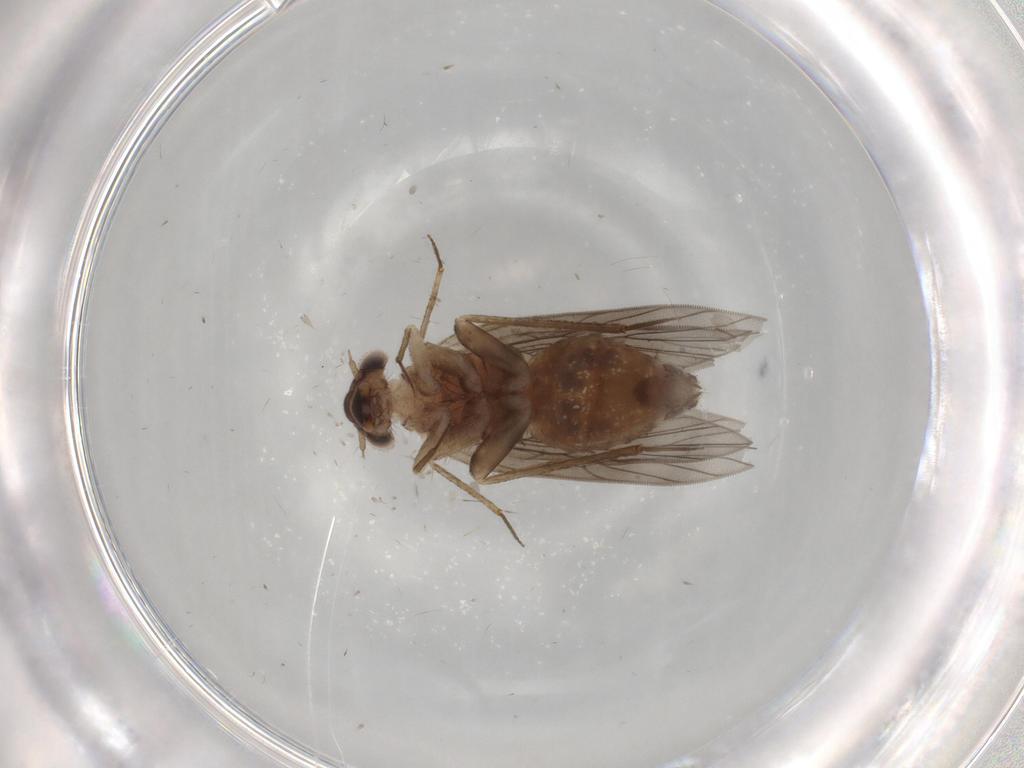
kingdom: Animalia
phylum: Arthropoda
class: Insecta
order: Psocodea
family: Lepidopsocidae
